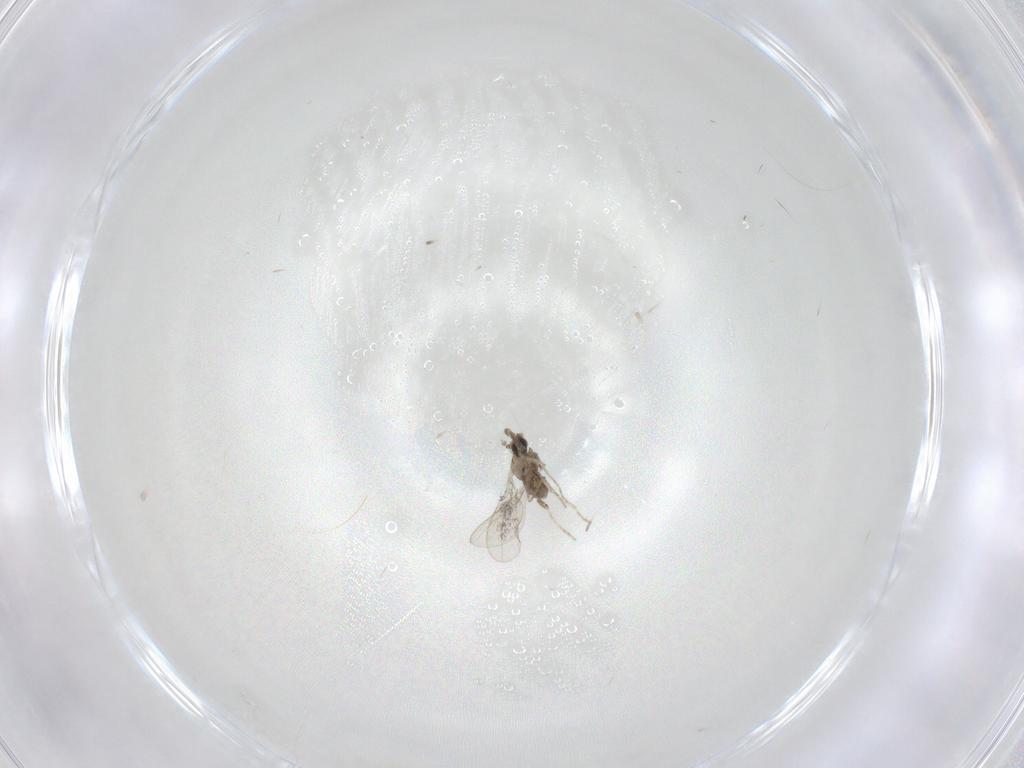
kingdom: Animalia
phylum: Arthropoda
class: Insecta
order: Diptera
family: Cecidomyiidae
